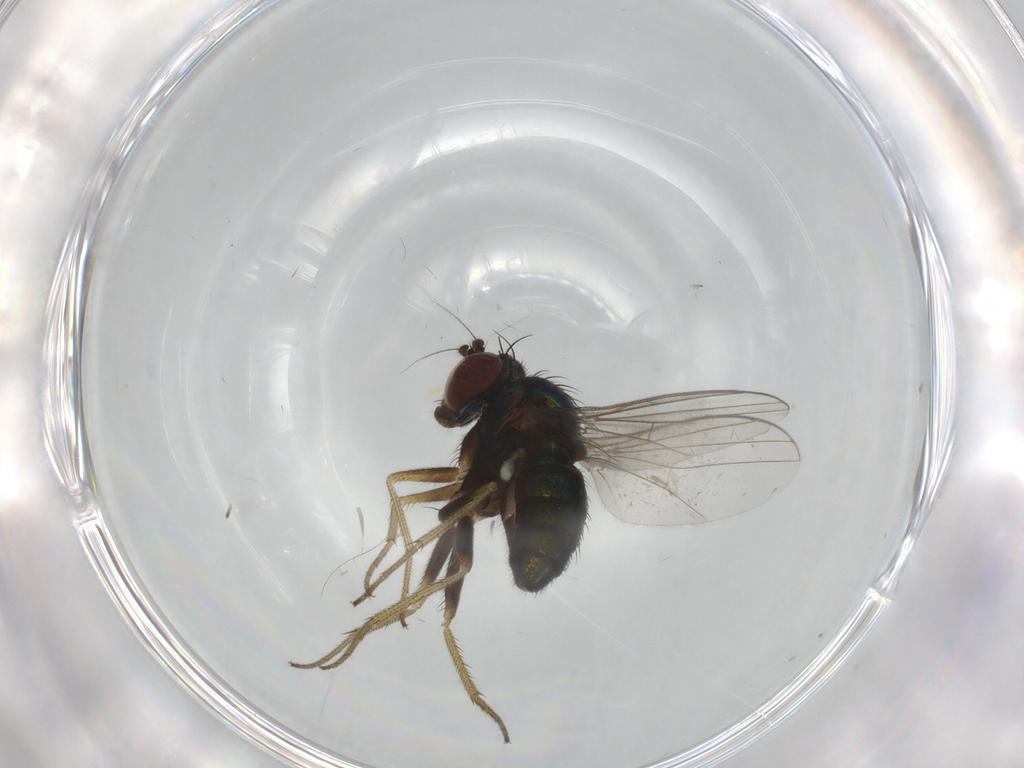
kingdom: Animalia
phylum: Arthropoda
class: Insecta
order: Diptera
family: Dolichopodidae
